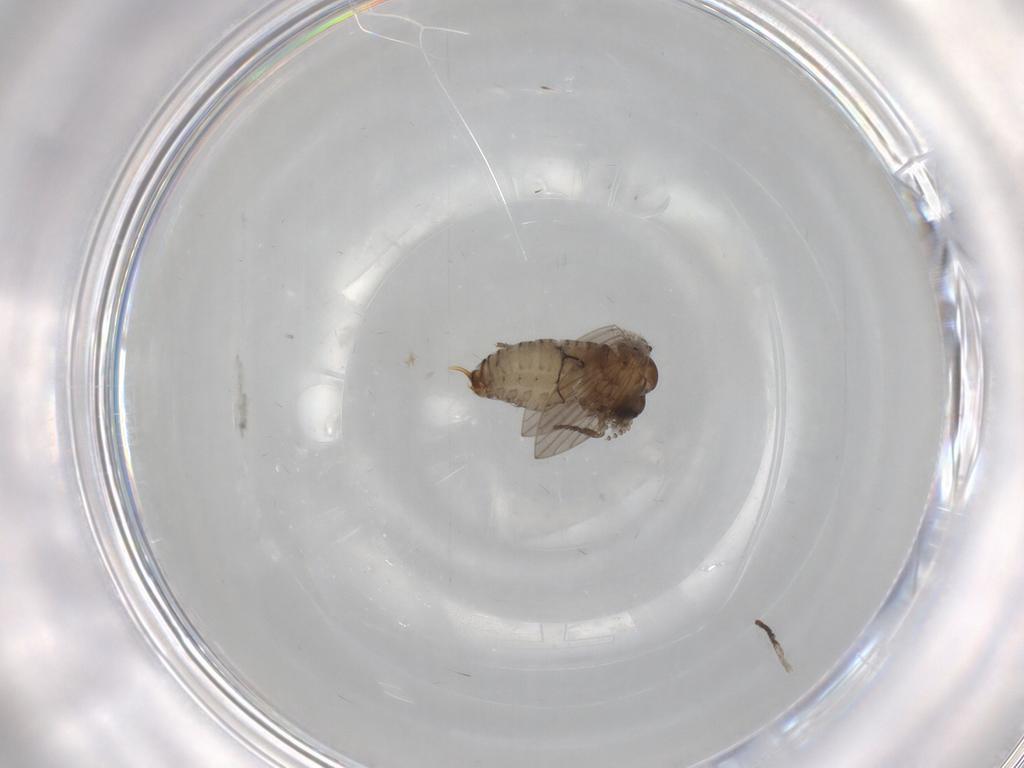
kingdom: Animalia
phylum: Arthropoda
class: Insecta
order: Diptera
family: Psychodidae
